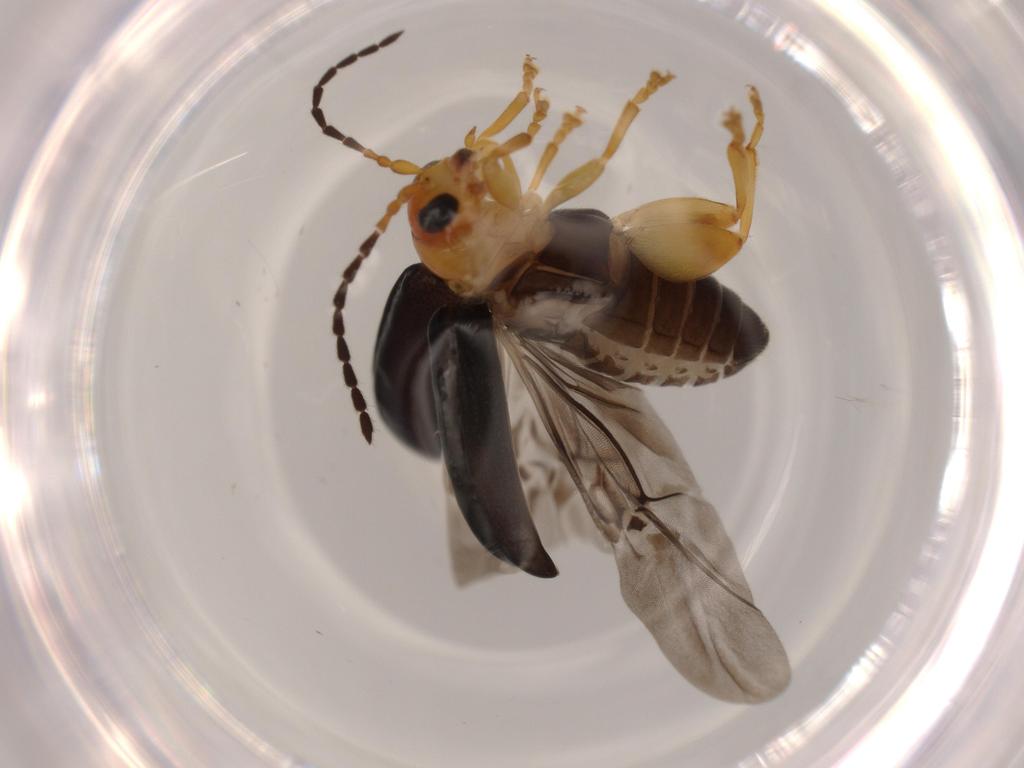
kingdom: Animalia
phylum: Arthropoda
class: Insecta
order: Coleoptera
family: Chrysomelidae
